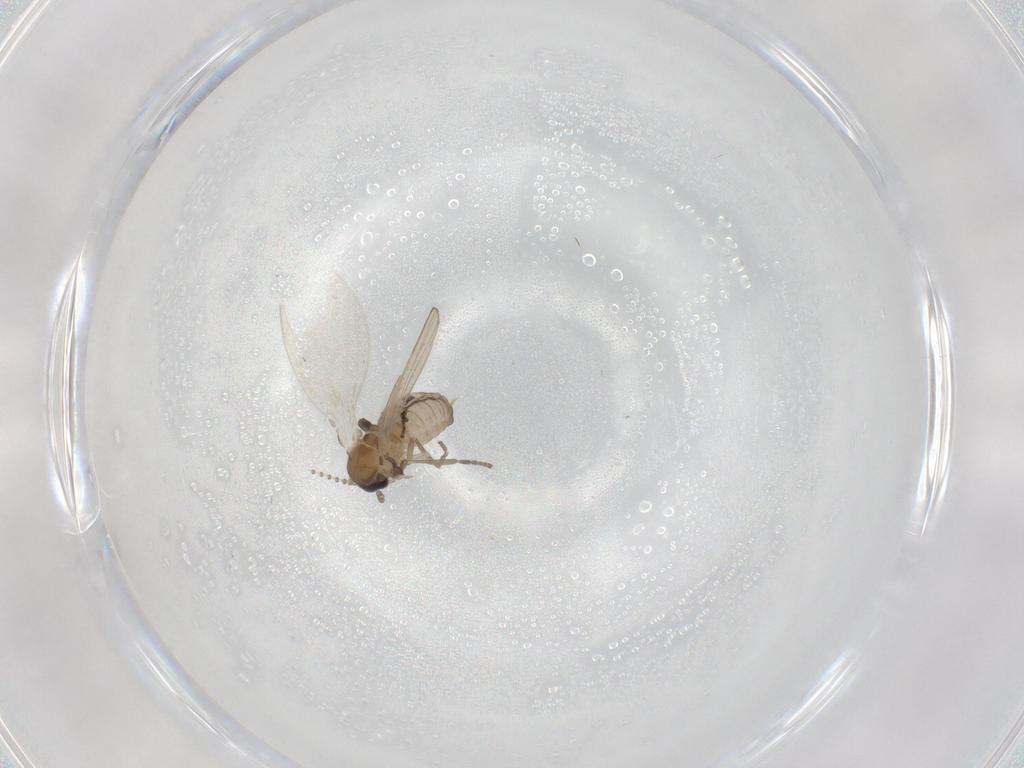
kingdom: Animalia
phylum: Arthropoda
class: Insecta
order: Diptera
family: Psychodidae
